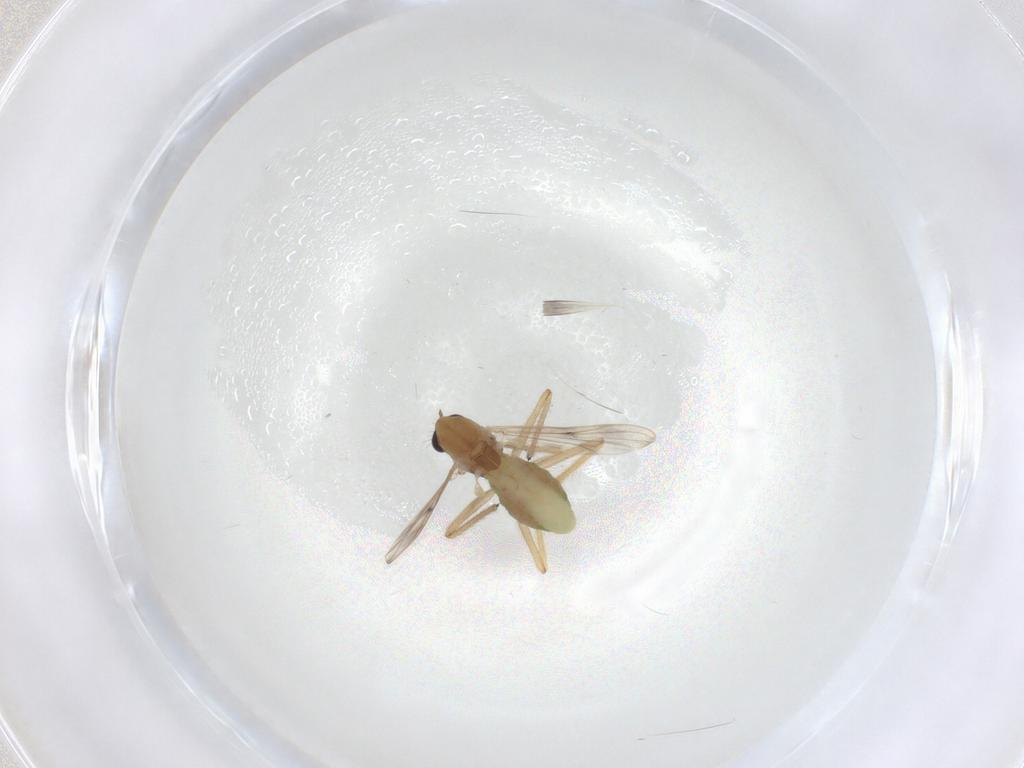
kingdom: Animalia
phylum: Arthropoda
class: Insecta
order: Diptera
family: Chironomidae
